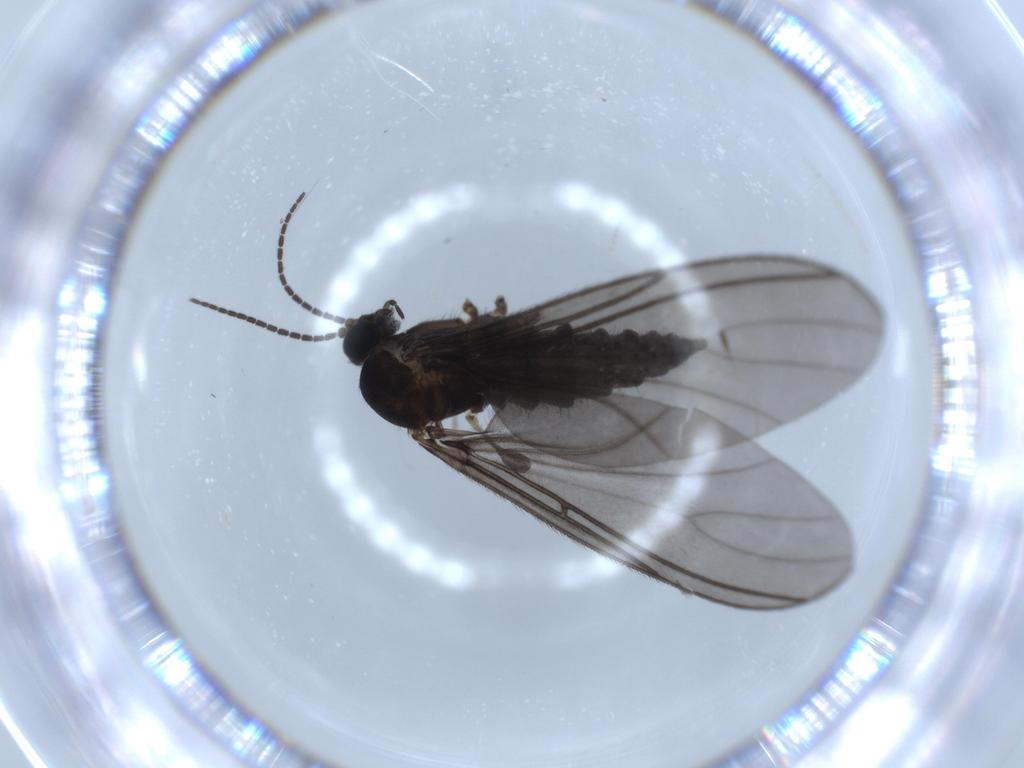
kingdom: Animalia
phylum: Arthropoda
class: Insecta
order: Diptera
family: Sciaridae
